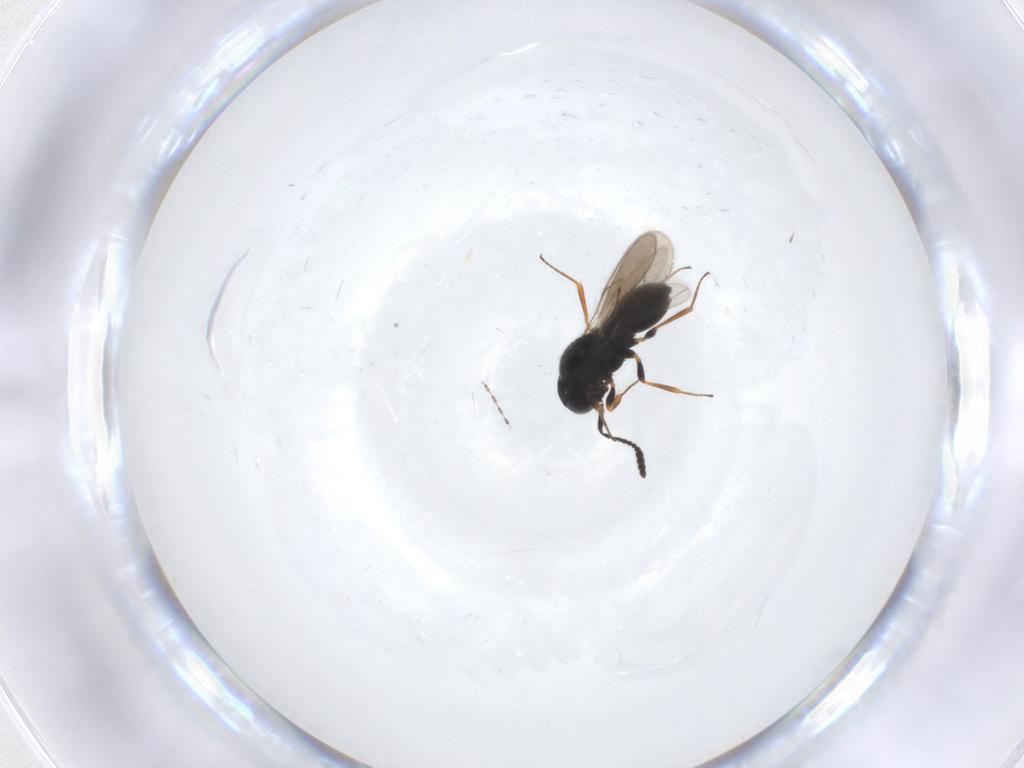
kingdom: Animalia
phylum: Arthropoda
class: Insecta
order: Hymenoptera
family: Scelionidae
